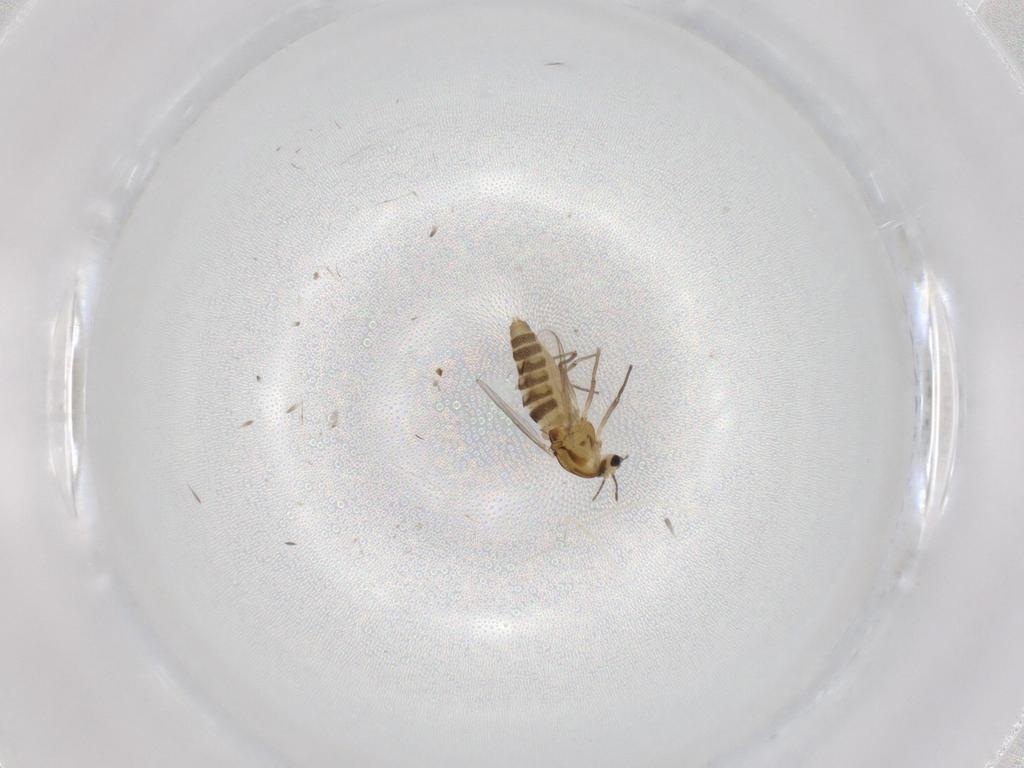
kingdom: Animalia
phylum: Arthropoda
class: Insecta
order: Diptera
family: Chironomidae
